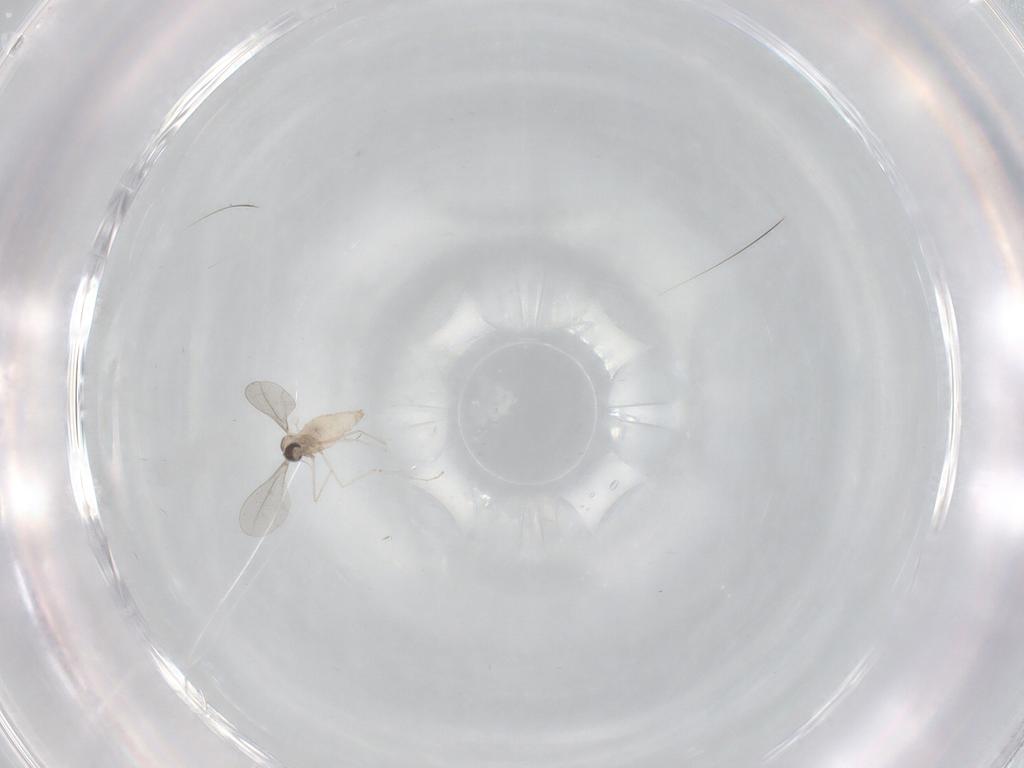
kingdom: Animalia
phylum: Arthropoda
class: Insecta
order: Diptera
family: Cecidomyiidae
